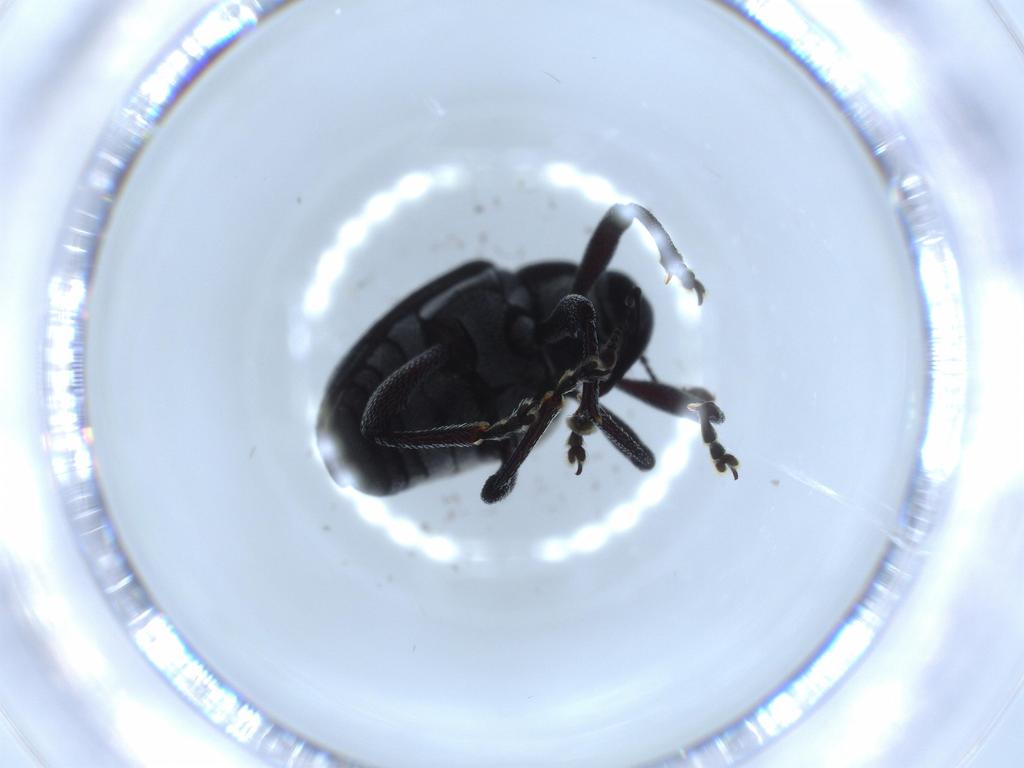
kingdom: Animalia
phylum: Arthropoda
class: Insecta
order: Coleoptera
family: Curculionidae
